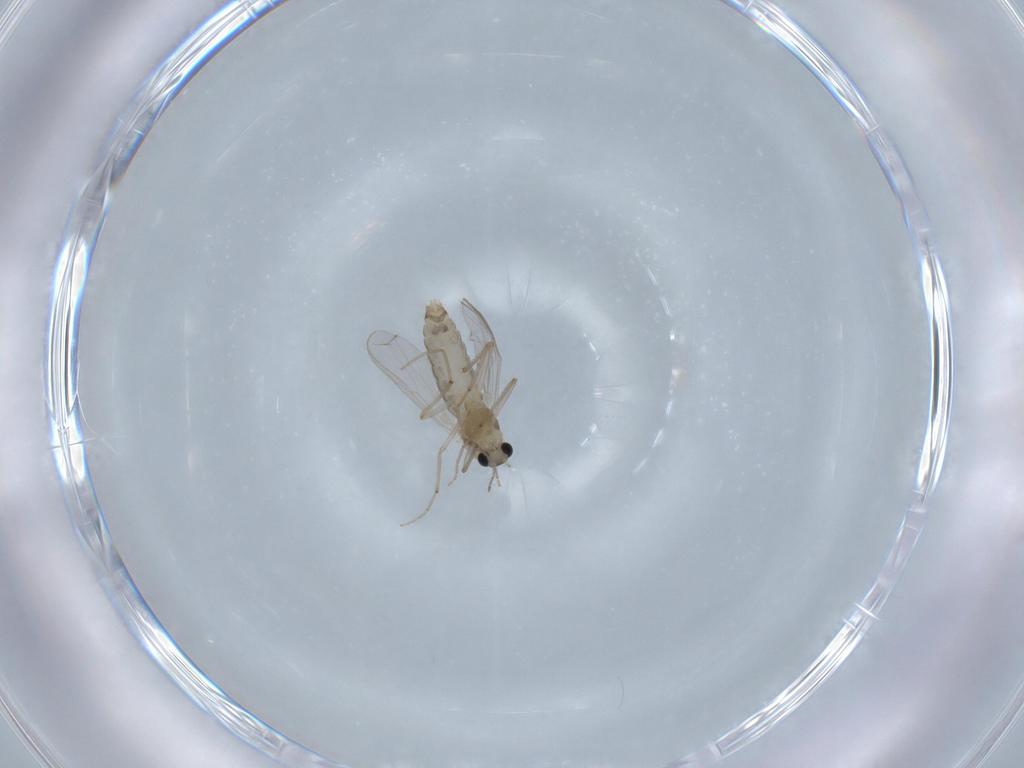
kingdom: Animalia
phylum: Arthropoda
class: Insecta
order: Diptera
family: Chironomidae
